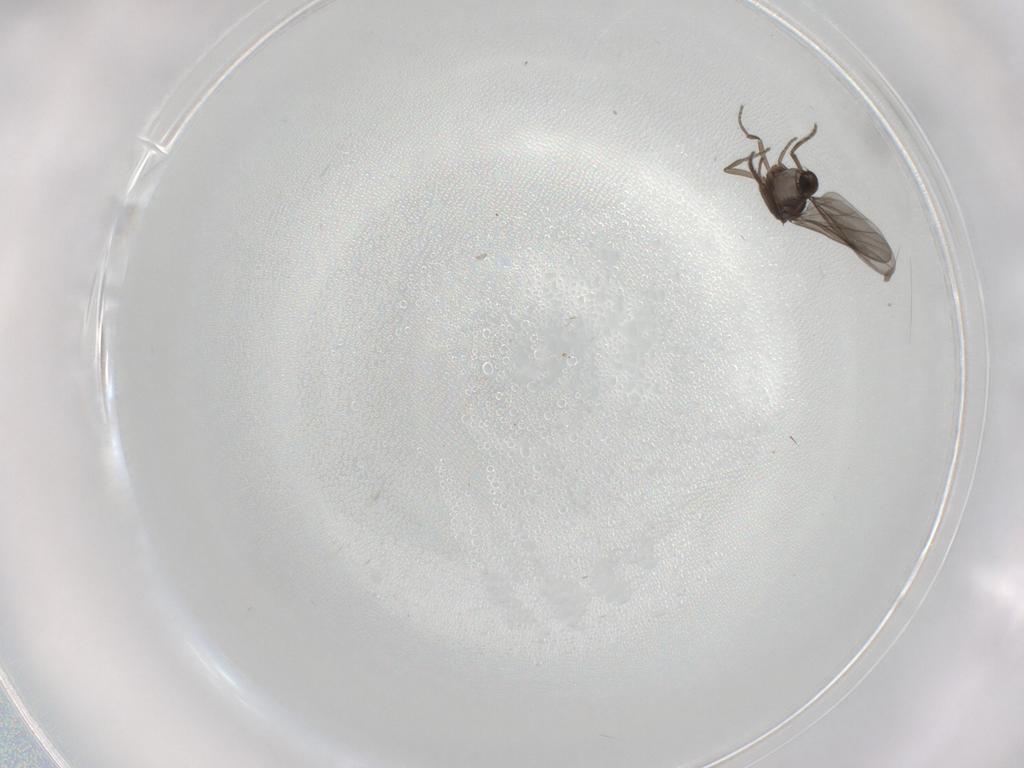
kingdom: Animalia
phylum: Arthropoda
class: Insecta
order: Diptera
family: Phoridae
